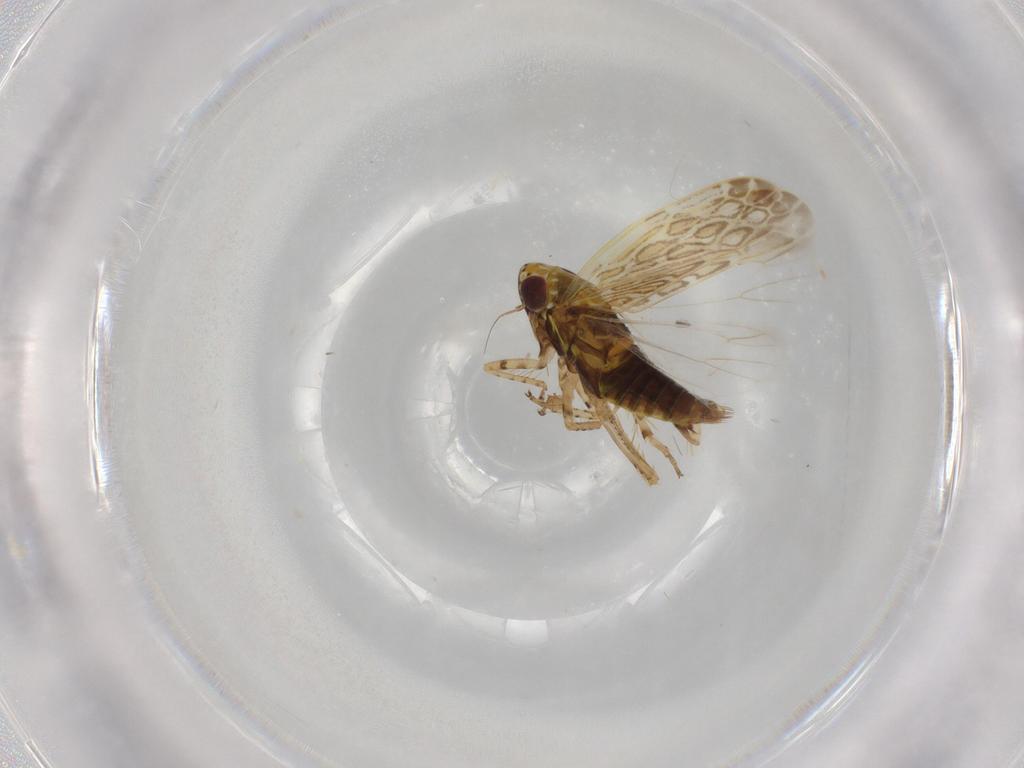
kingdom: Animalia
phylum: Arthropoda
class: Insecta
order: Hemiptera
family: Cicadellidae
